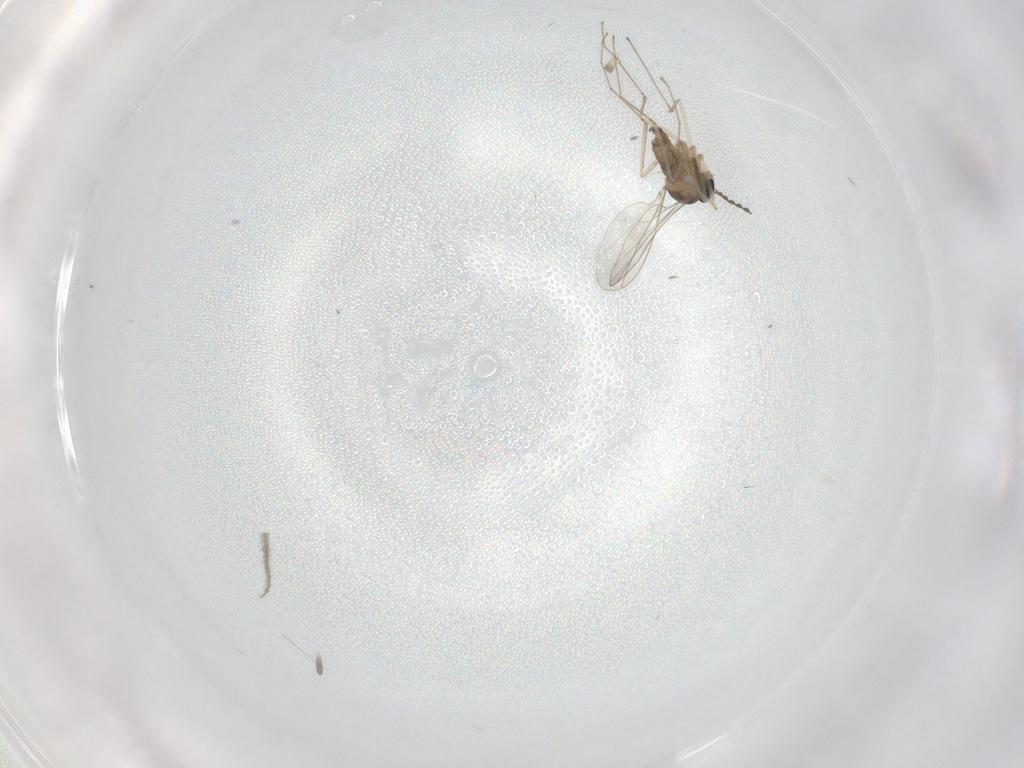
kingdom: Animalia
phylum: Arthropoda
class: Insecta
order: Diptera
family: Cecidomyiidae
